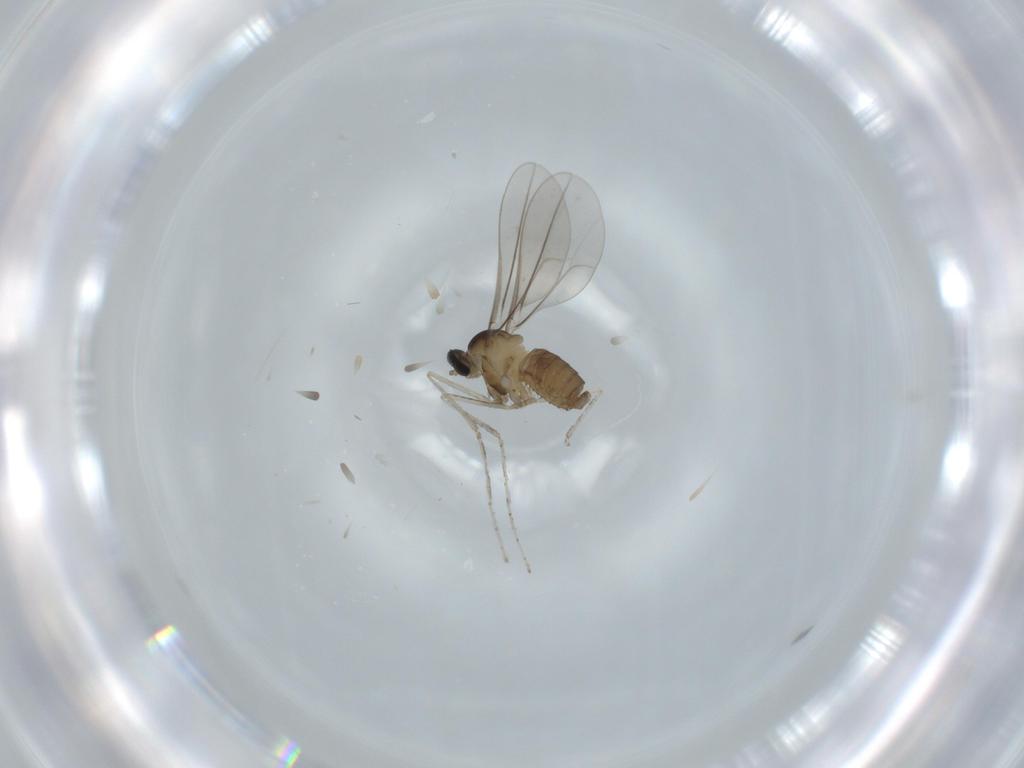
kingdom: Animalia
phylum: Arthropoda
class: Insecta
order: Diptera
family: Cecidomyiidae
